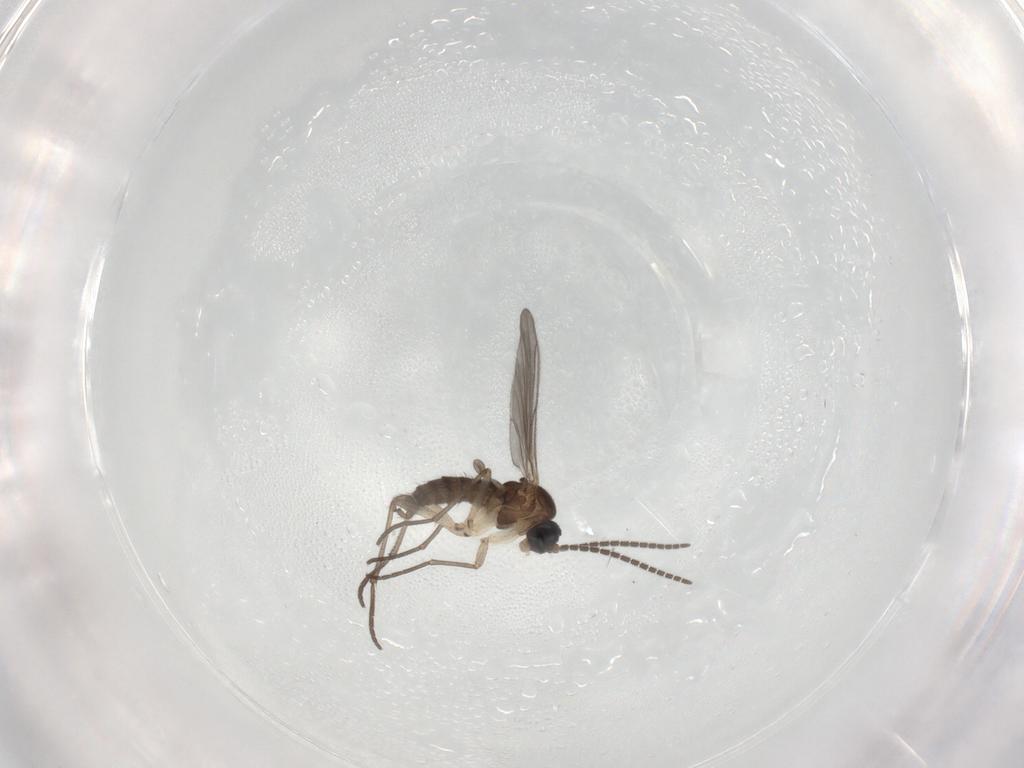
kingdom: Animalia
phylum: Arthropoda
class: Insecta
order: Diptera
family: Sciaridae
